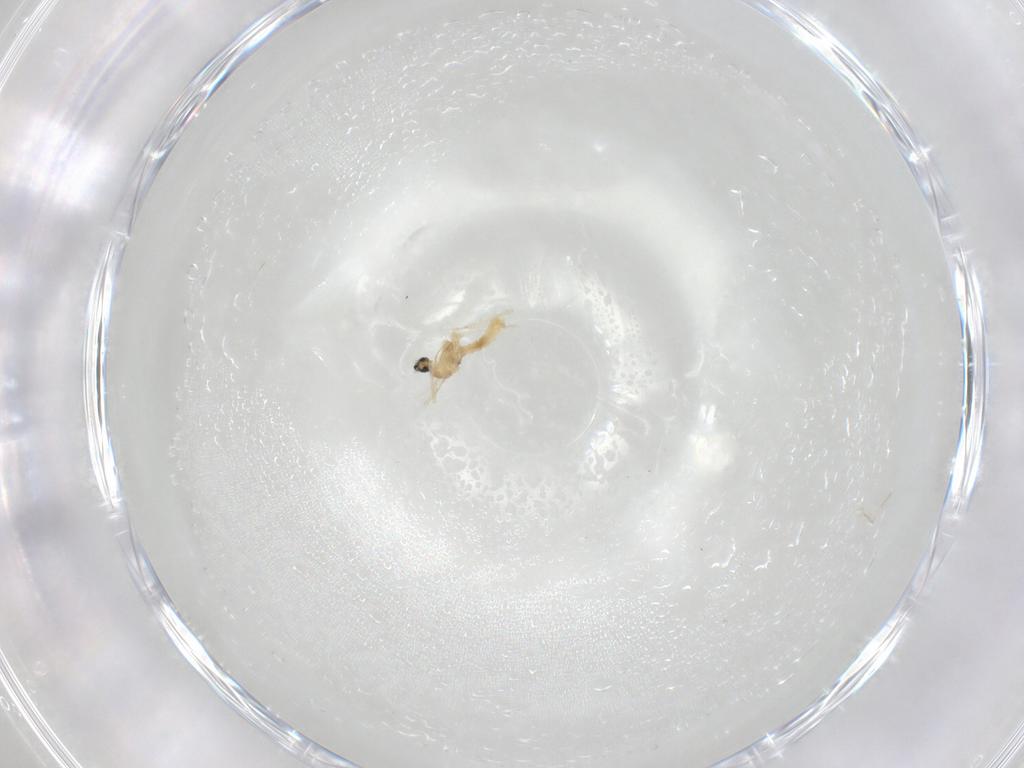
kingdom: Animalia
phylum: Arthropoda
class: Insecta
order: Diptera
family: Cecidomyiidae
